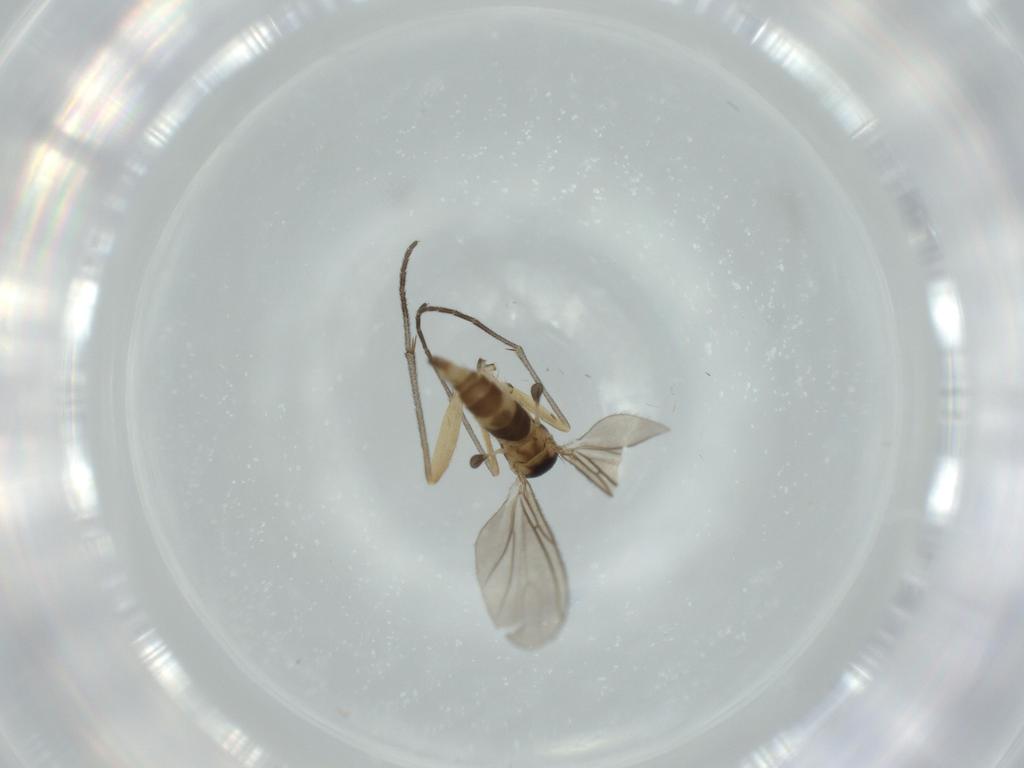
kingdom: Animalia
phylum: Arthropoda
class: Insecta
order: Diptera
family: Sciaridae
